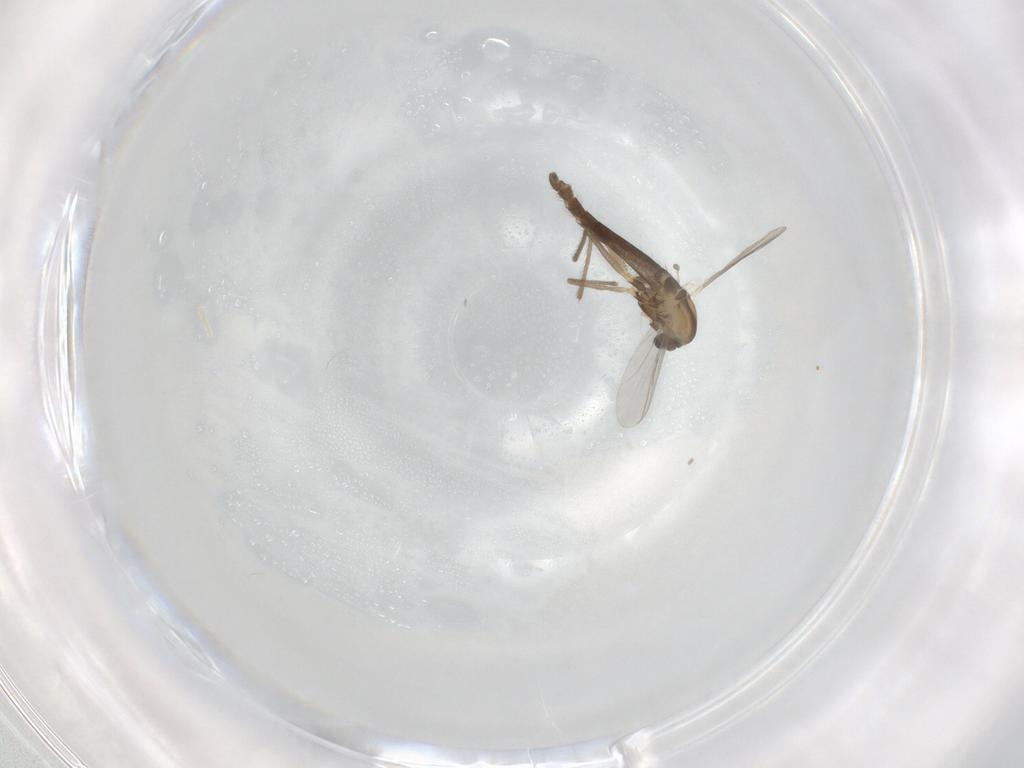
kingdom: Animalia
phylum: Arthropoda
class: Insecta
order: Diptera
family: Chironomidae
